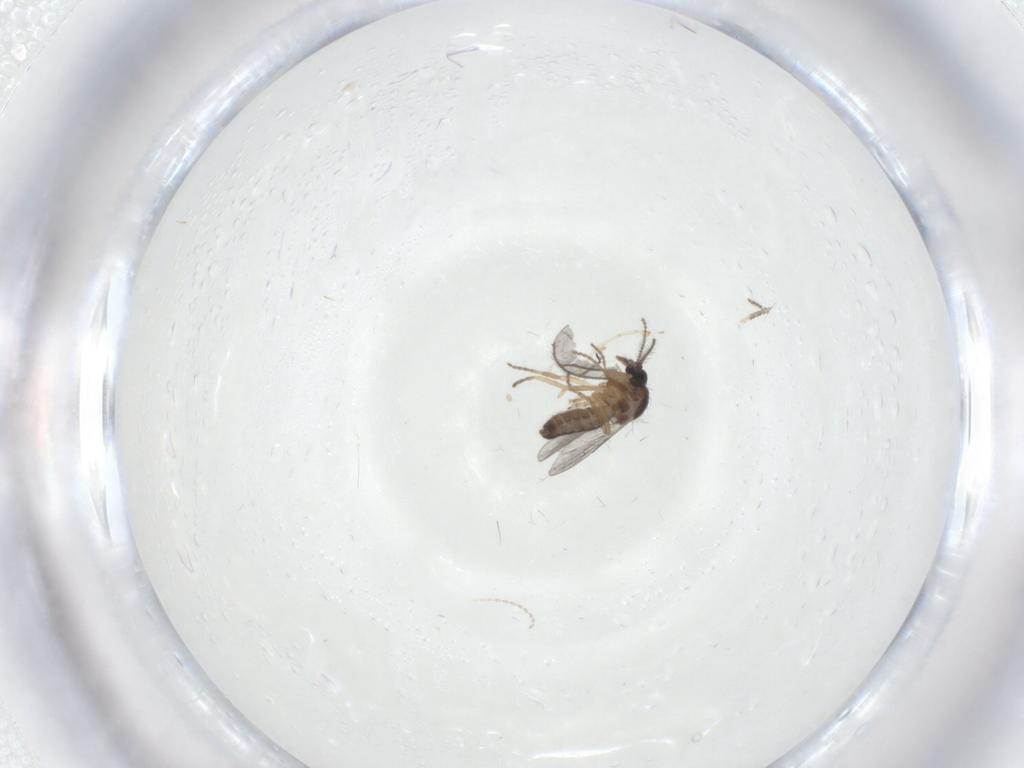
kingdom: Animalia
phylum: Arthropoda
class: Insecta
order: Diptera
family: Cecidomyiidae
